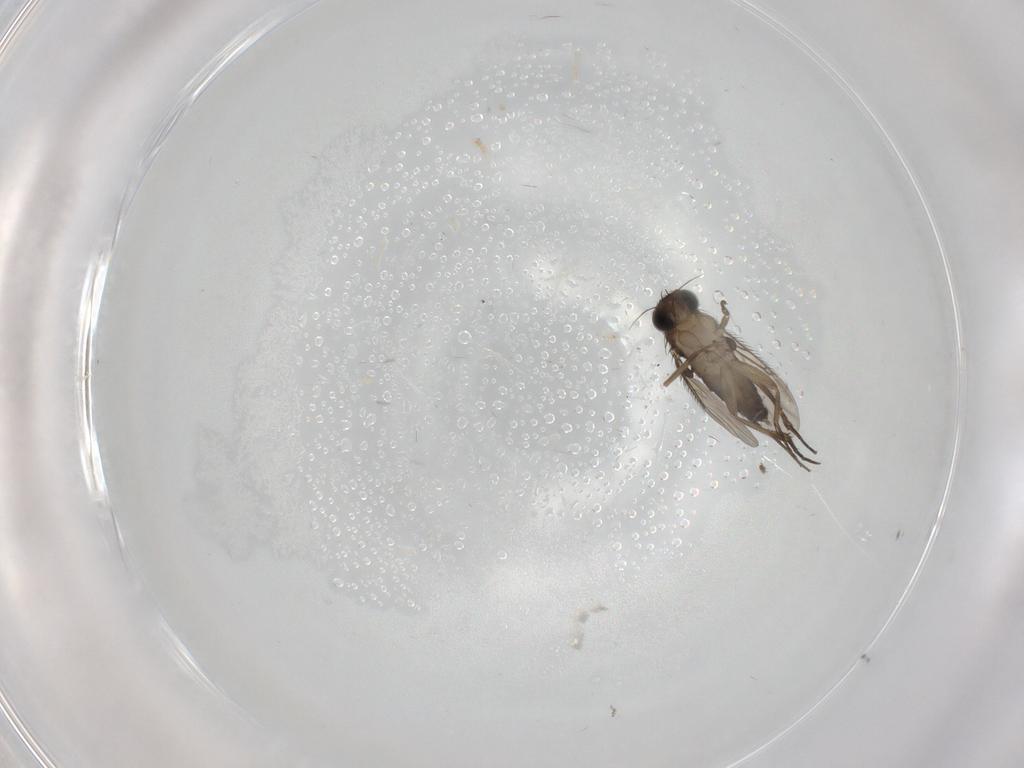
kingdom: Animalia
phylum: Arthropoda
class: Insecta
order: Diptera
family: Phoridae
